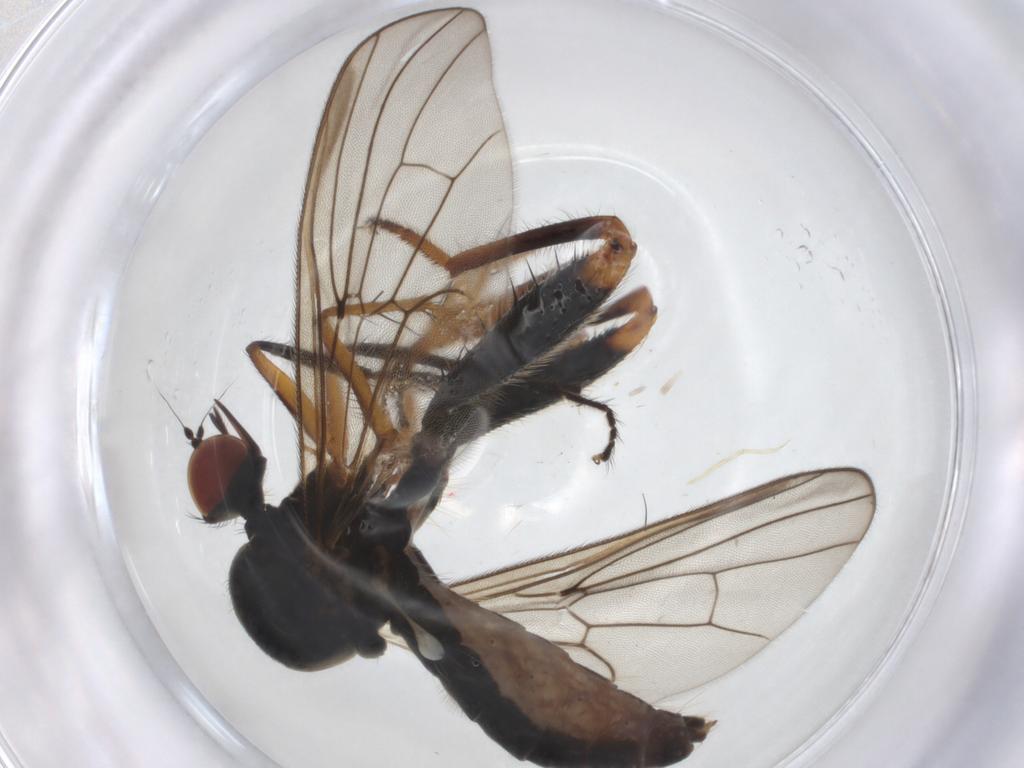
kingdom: Animalia
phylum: Arthropoda
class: Insecta
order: Diptera
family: Hybotidae
